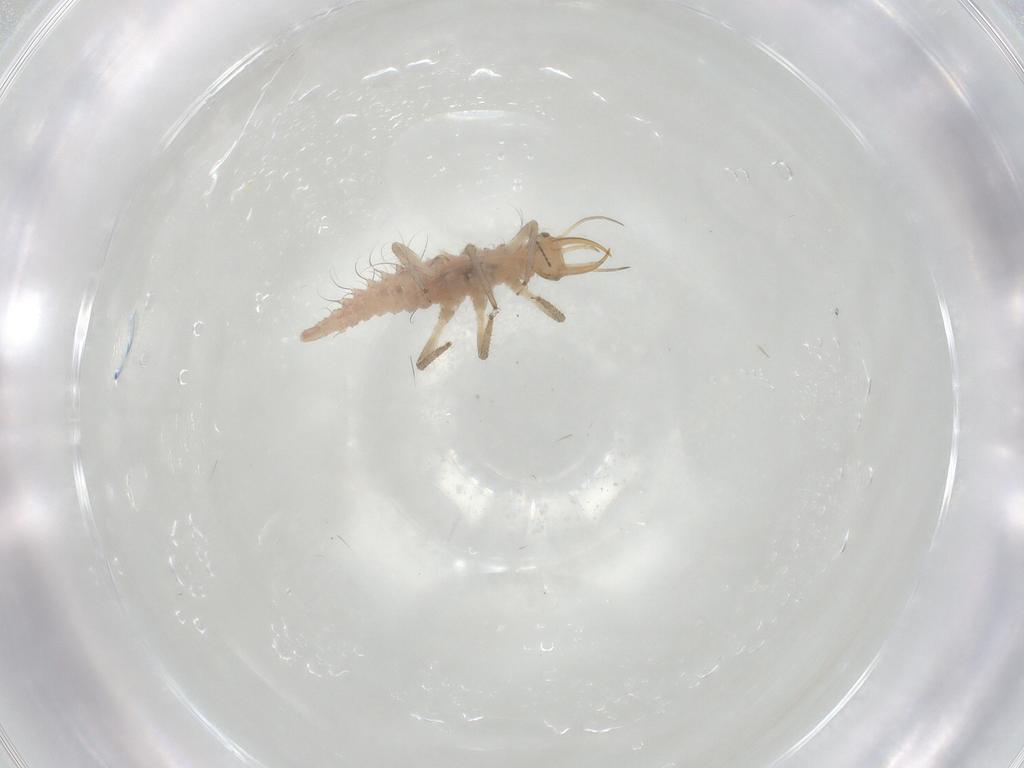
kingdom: Animalia
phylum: Arthropoda
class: Insecta
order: Neuroptera
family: Chrysopidae
